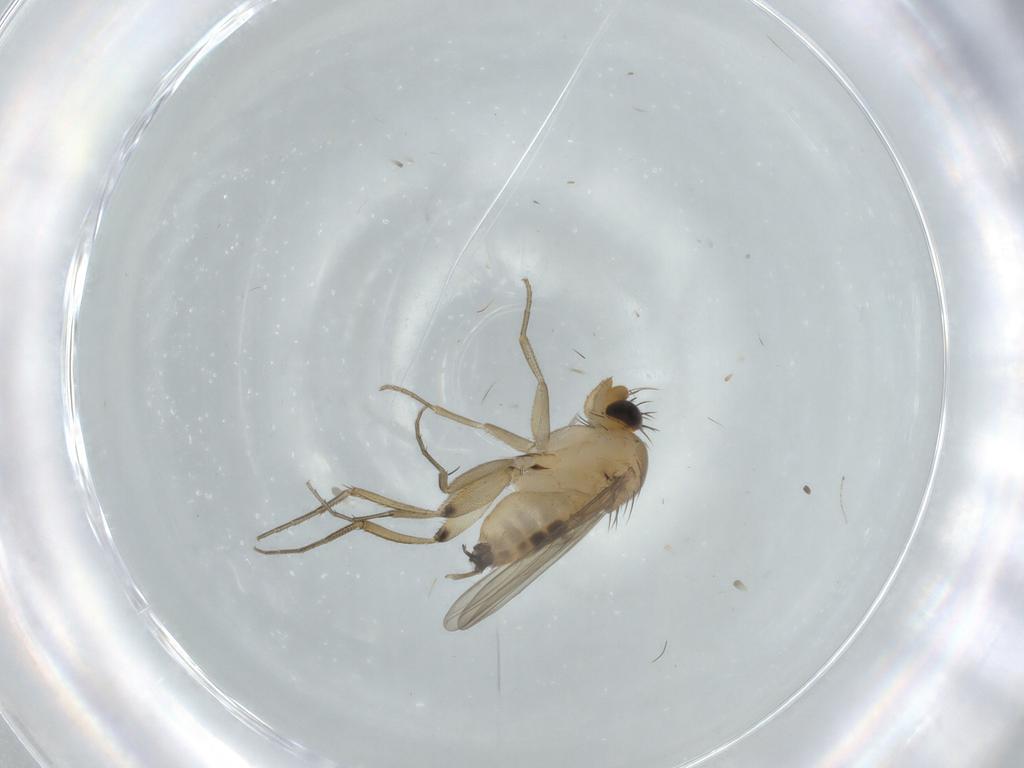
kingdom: Animalia
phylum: Arthropoda
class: Insecta
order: Diptera
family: Phoridae
